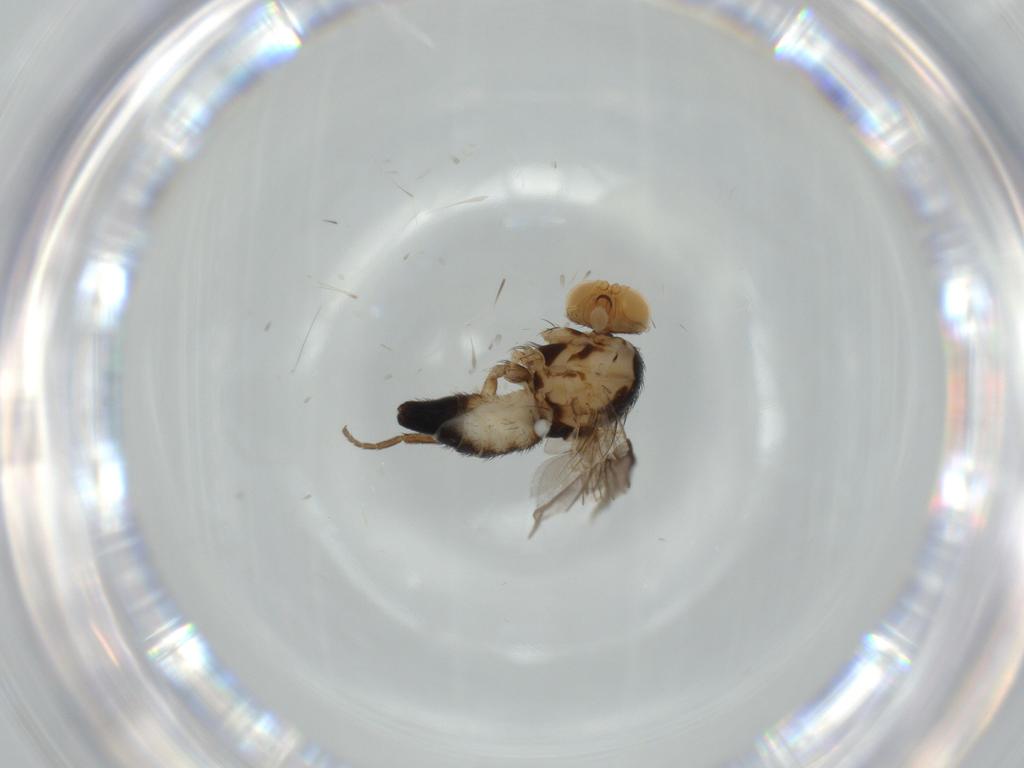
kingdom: Animalia
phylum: Arthropoda
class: Insecta
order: Diptera
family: Agromyzidae
